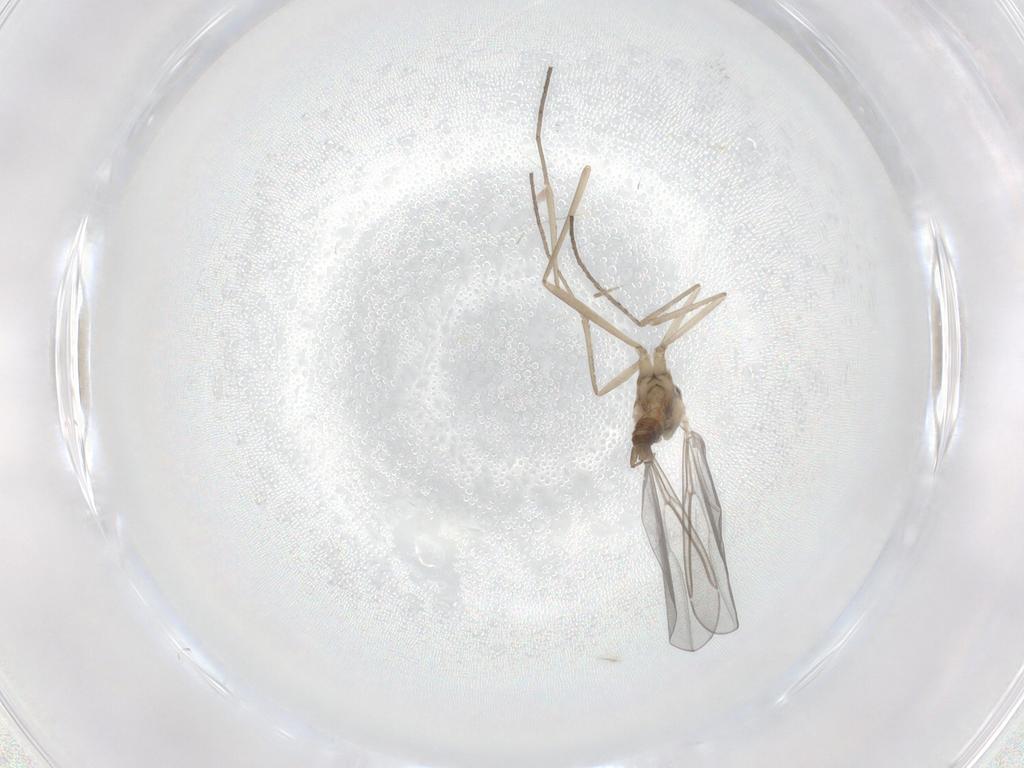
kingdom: Animalia
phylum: Arthropoda
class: Insecta
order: Diptera
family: Cecidomyiidae
